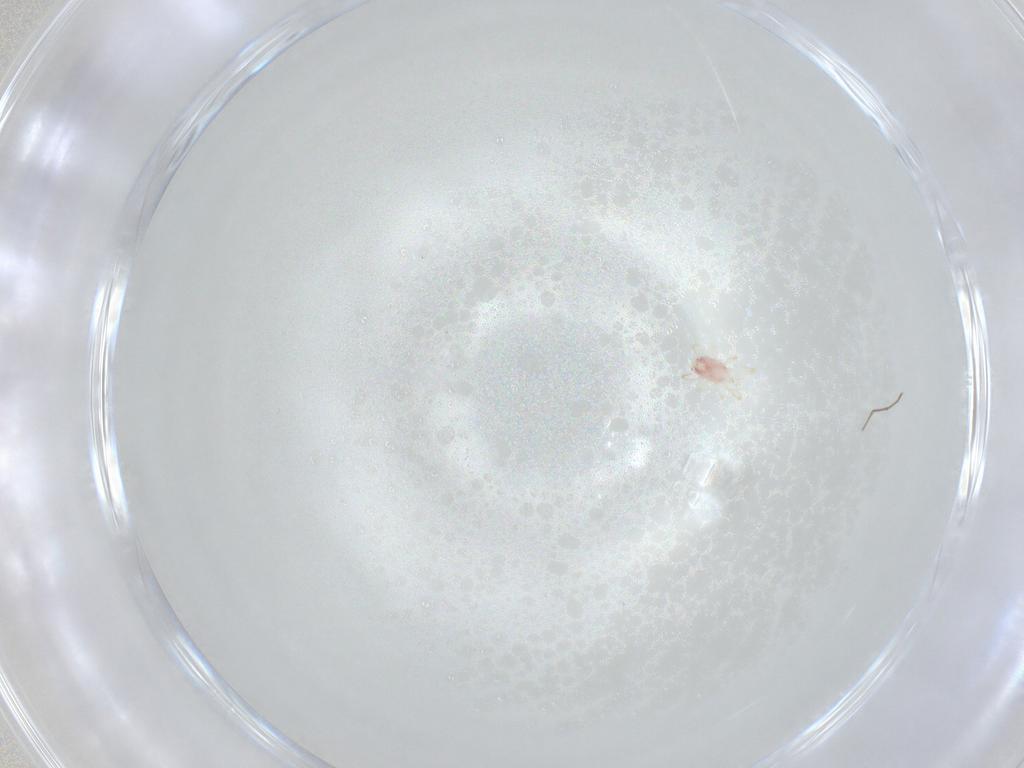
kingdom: Animalia
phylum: Arthropoda
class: Arachnida
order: Mesostigmata
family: Phytoseiidae
